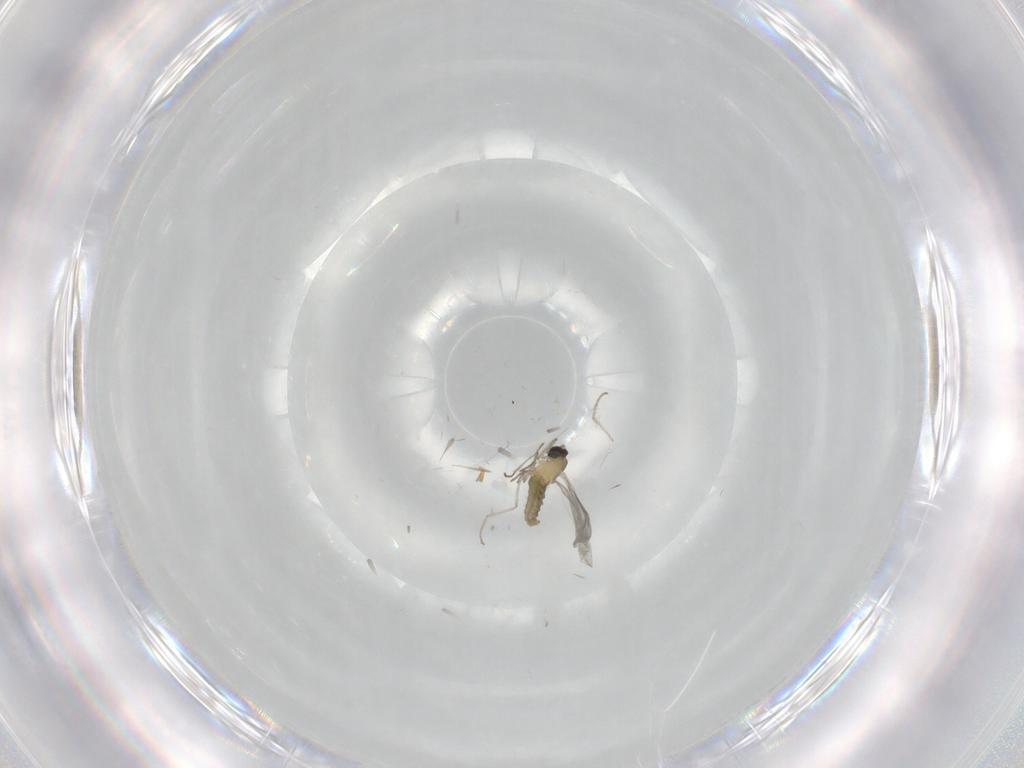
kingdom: Animalia
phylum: Arthropoda
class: Insecta
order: Diptera
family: Cecidomyiidae
